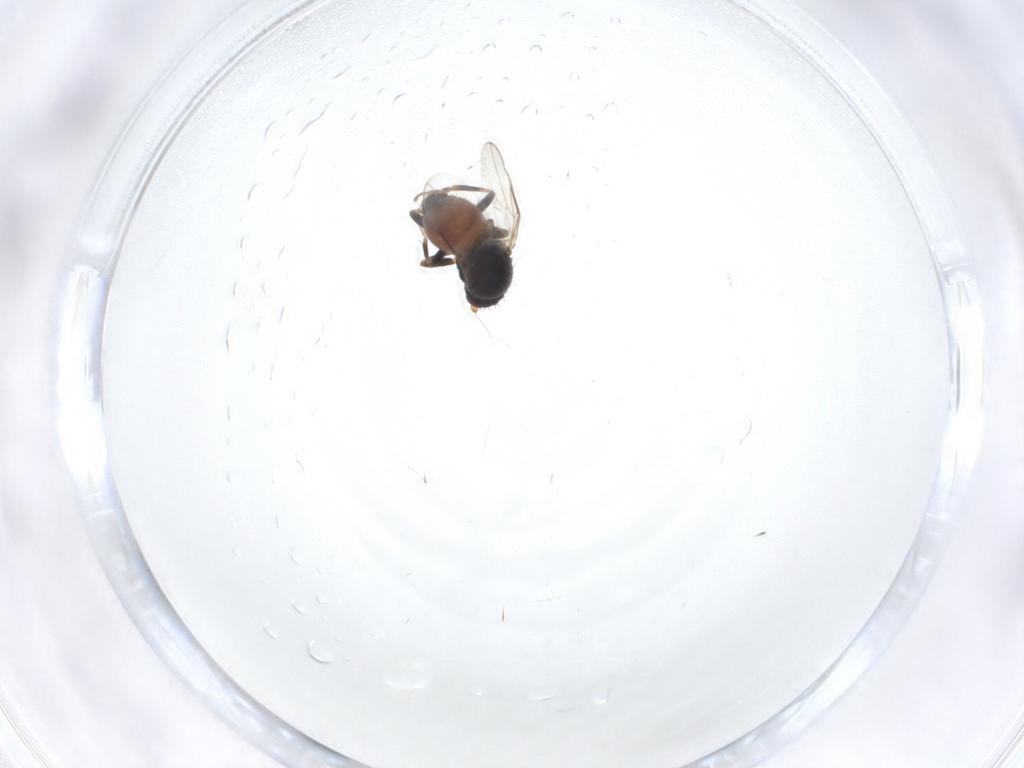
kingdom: Animalia
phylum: Arthropoda
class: Insecta
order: Diptera
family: Sphaeroceridae
